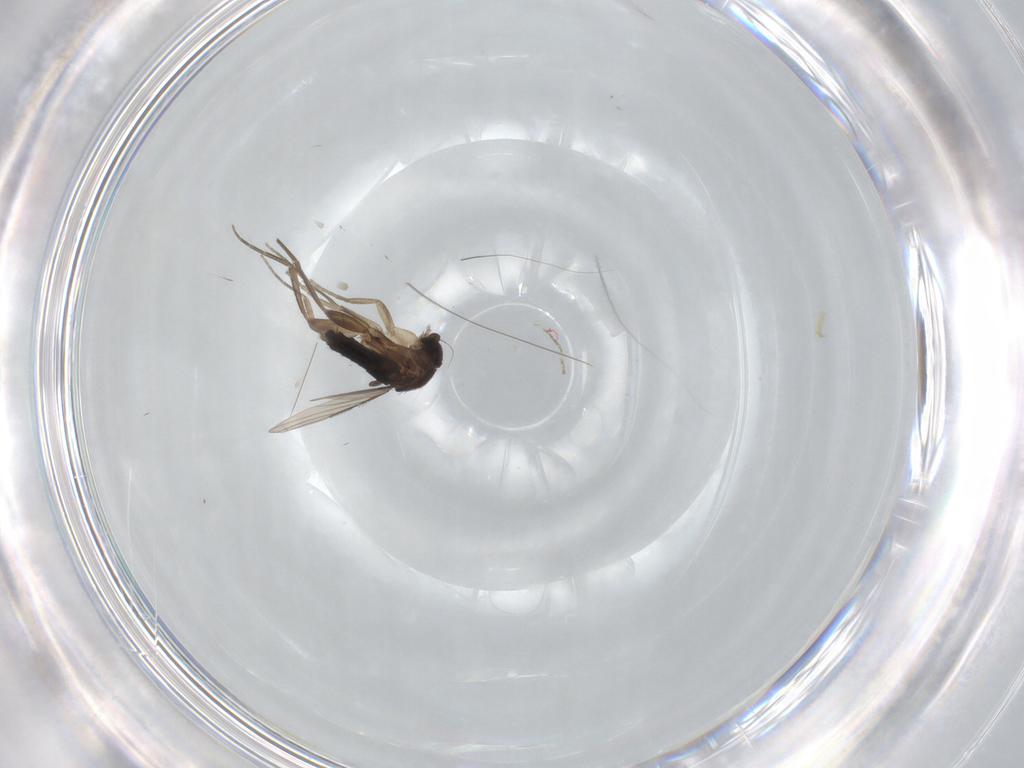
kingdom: Animalia
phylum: Arthropoda
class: Insecta
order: Diptera
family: Phoridae
